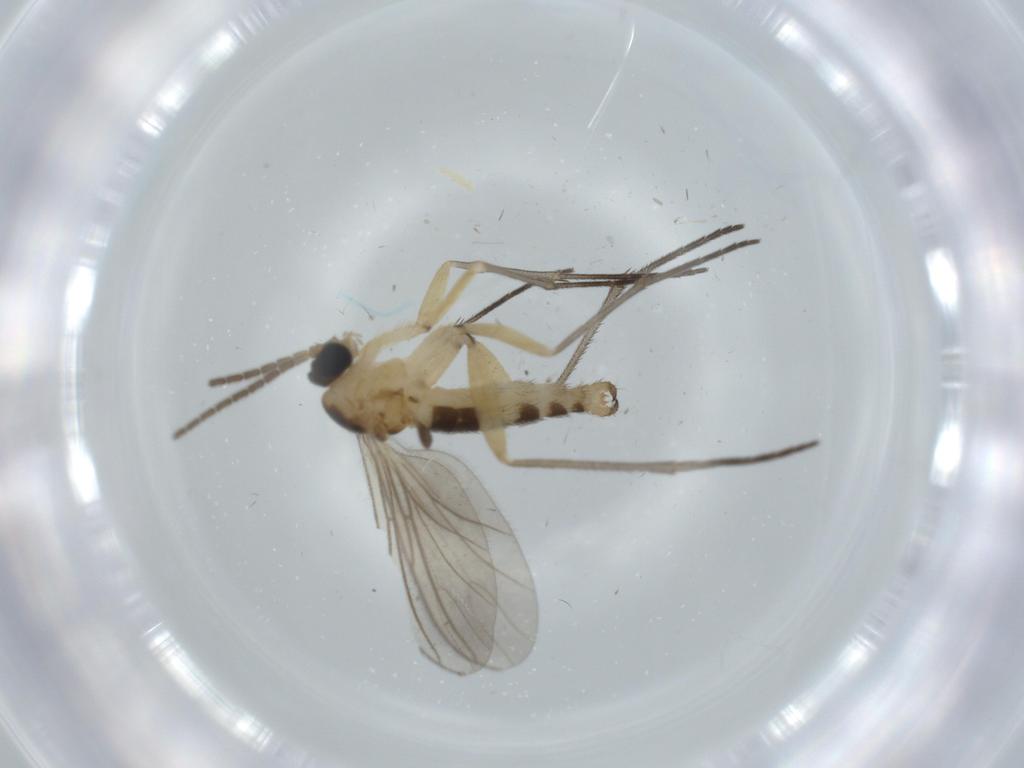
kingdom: Animalia
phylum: Arthropoda
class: Insecta
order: Diptera
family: Sciaridae
